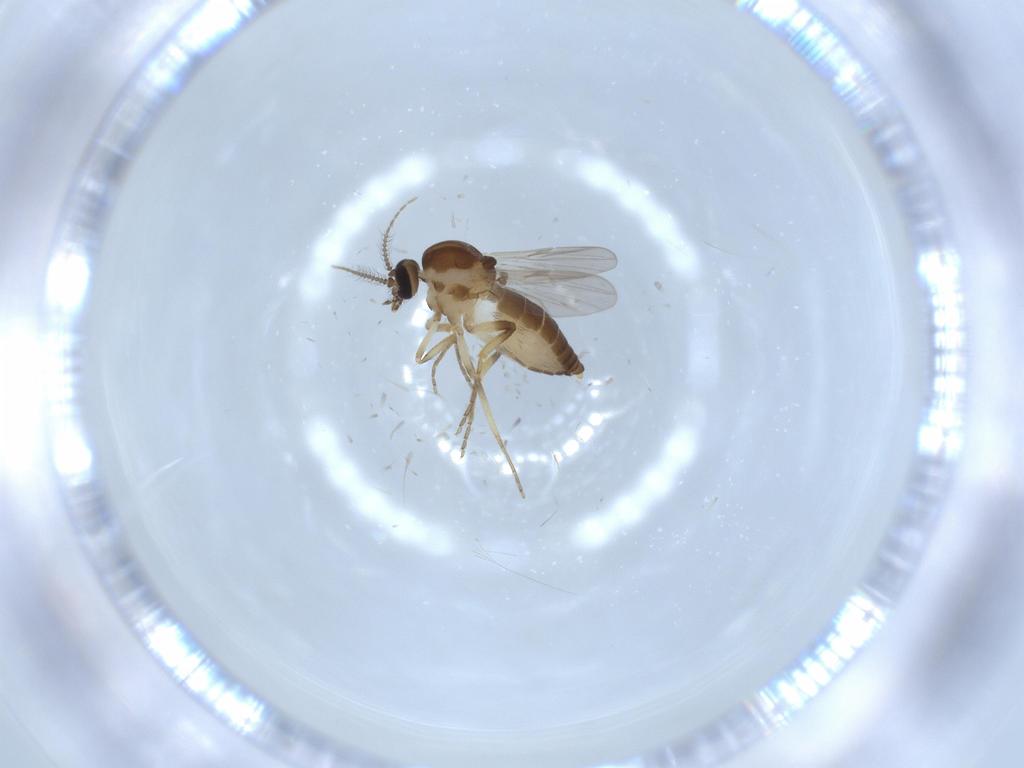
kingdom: Animalia
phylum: Arthropoda
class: Insecta
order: Diptera
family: Ceratopogonidae
